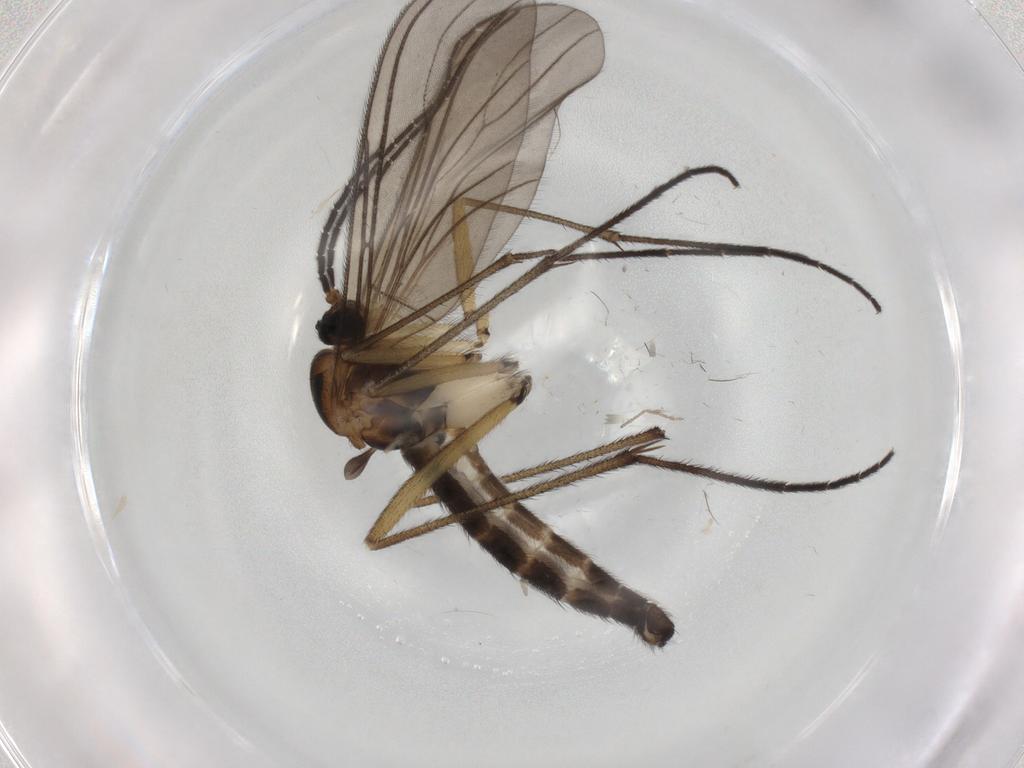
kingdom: Animalia
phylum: Arthropoda
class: Insecta
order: Diptera
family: Sciaridae
